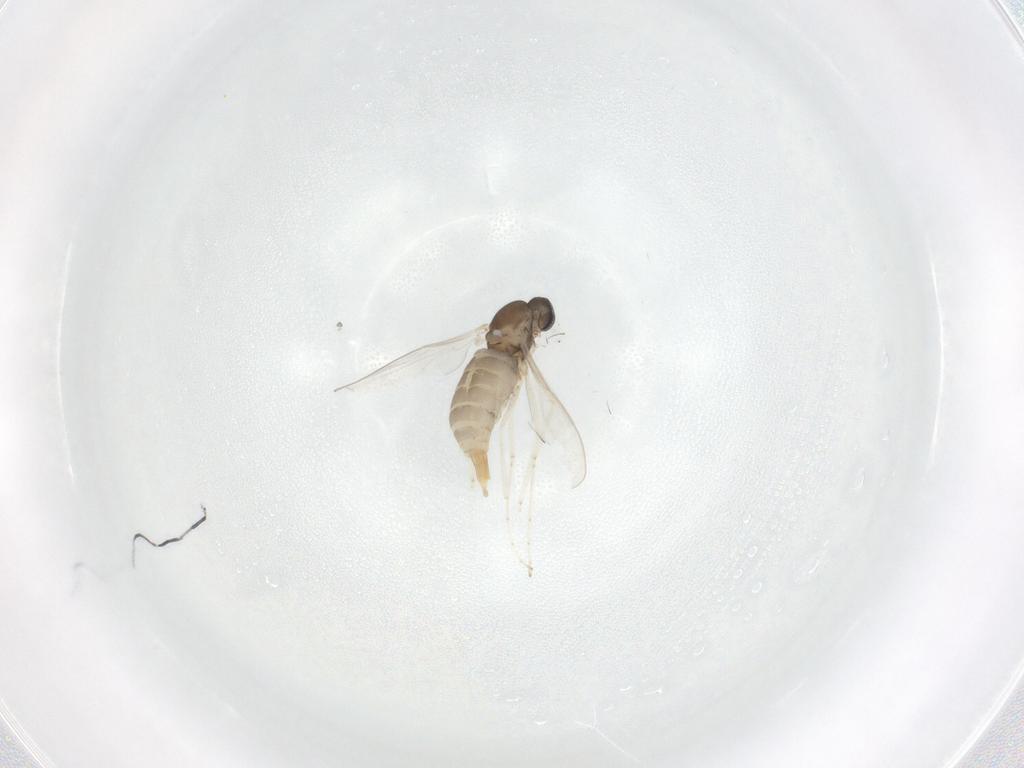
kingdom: Animalia
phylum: Arthropoda
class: Insecta
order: Diptera
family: Cecidomyiidae
